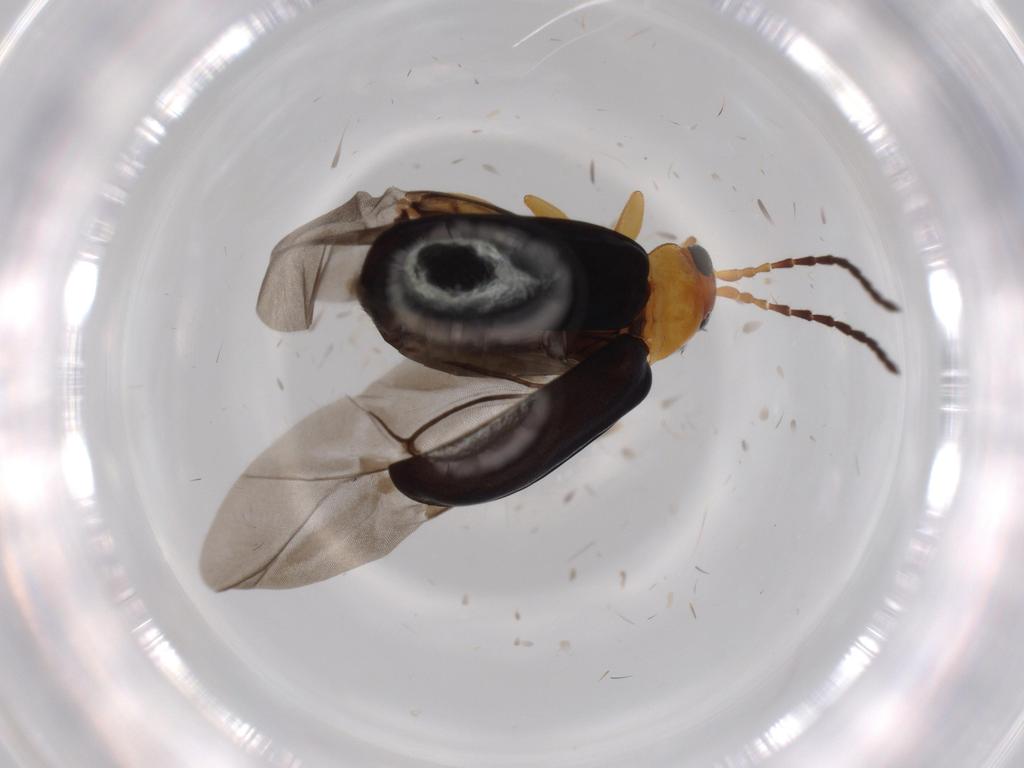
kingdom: Animalia
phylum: Arthropoda
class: Insecta
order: Coleoptera
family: Chrysomelidae
